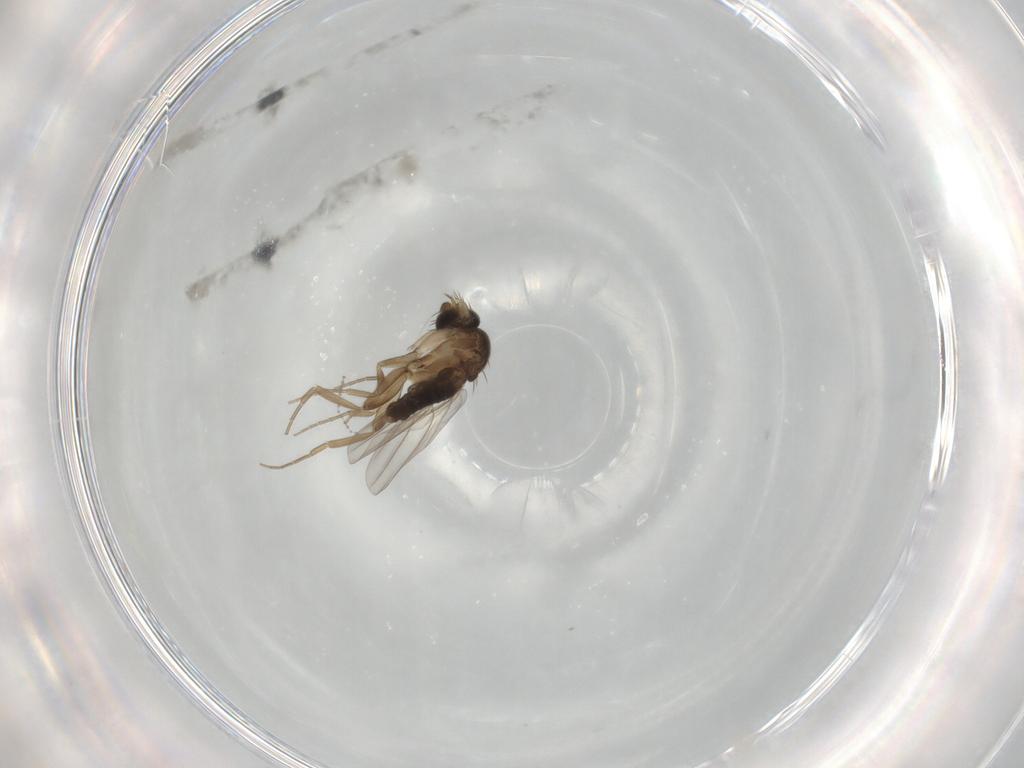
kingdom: Animalia
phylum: Arthropoda
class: Insecta
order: Diptera
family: Phoridae
